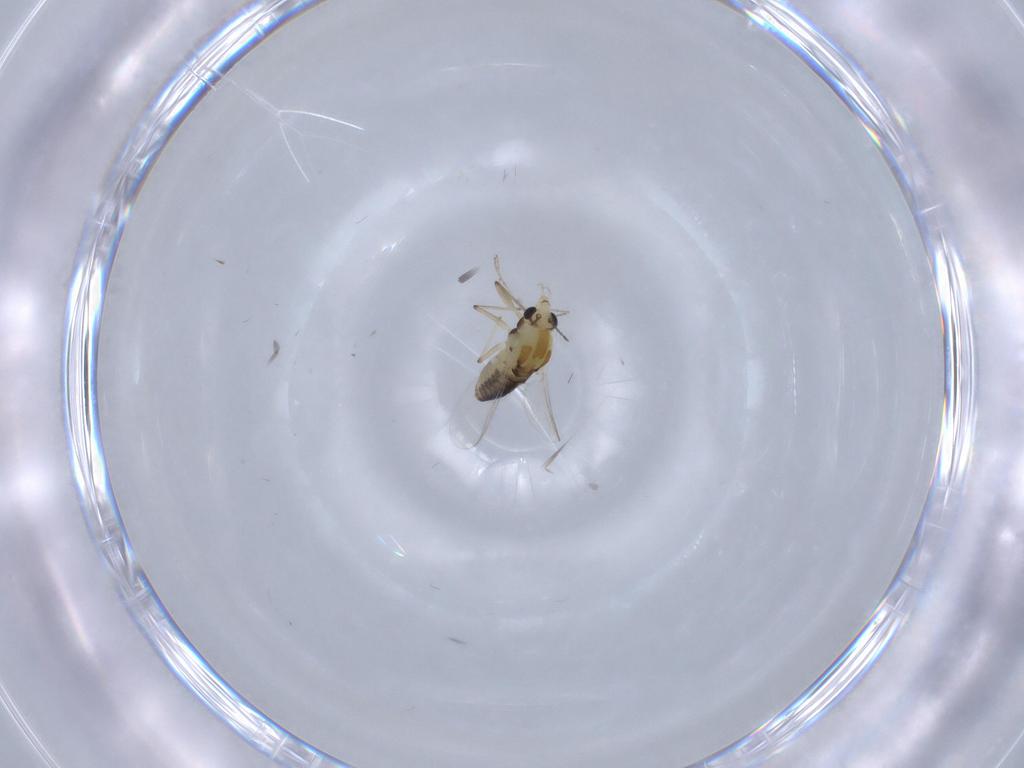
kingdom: Animalia
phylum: Arthropoda
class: Insecta
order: Diptera
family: Chironomidae
